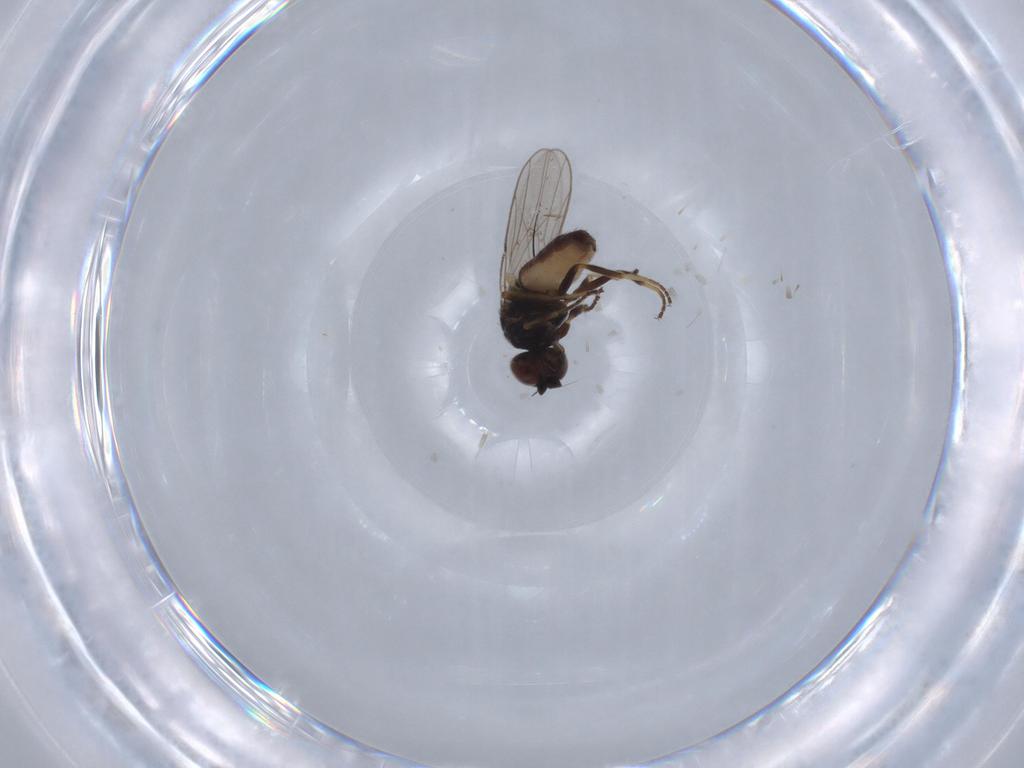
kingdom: Animalia
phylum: Arthropoda
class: Insecta
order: Diptera
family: Chloropidae
